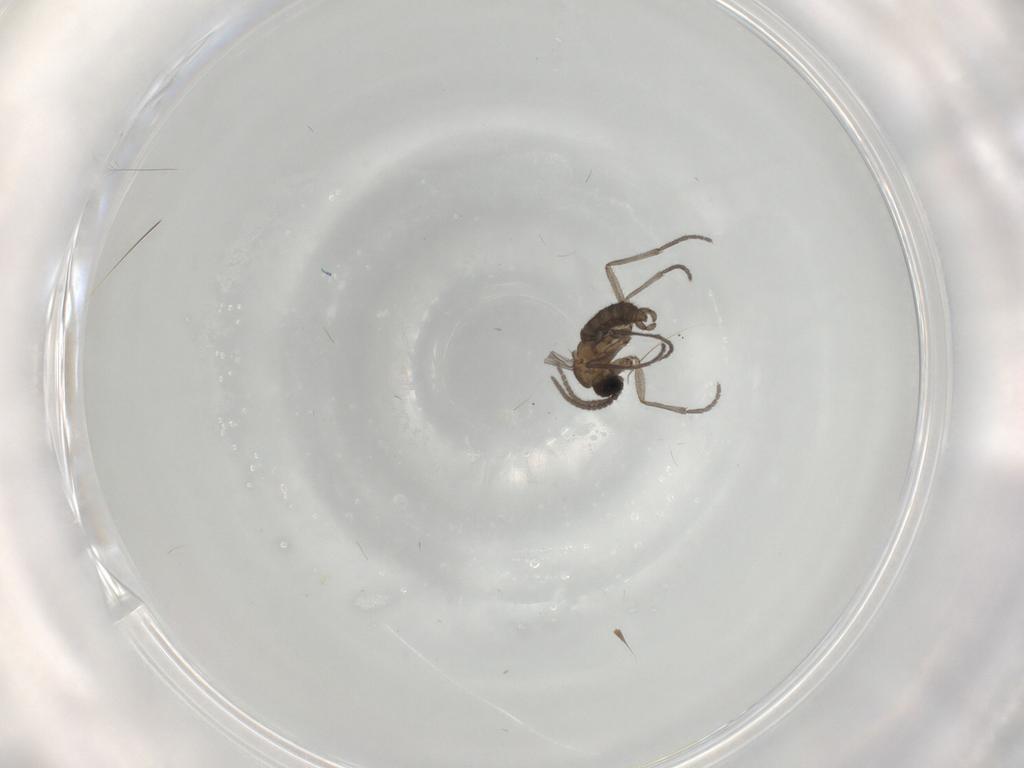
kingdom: Animalia
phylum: Arthropoda
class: Insecta
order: Diptera
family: Sciaridae
